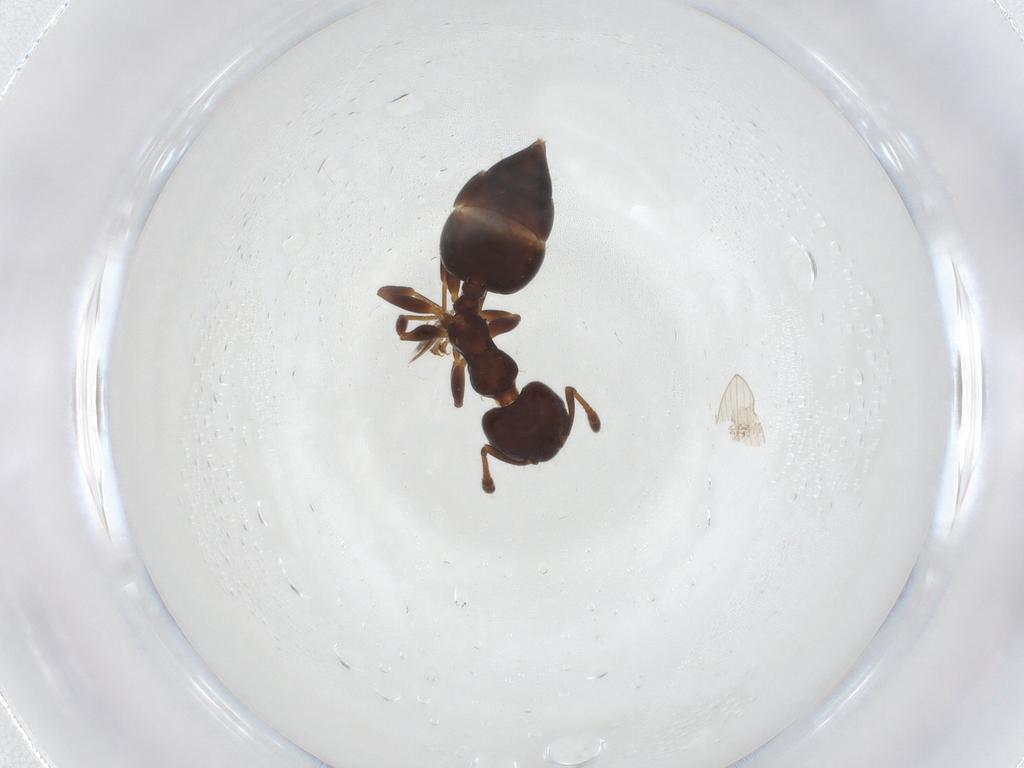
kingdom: Animalia
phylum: Arthropoda
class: Insecta
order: Hymenoptera
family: Formicidae
